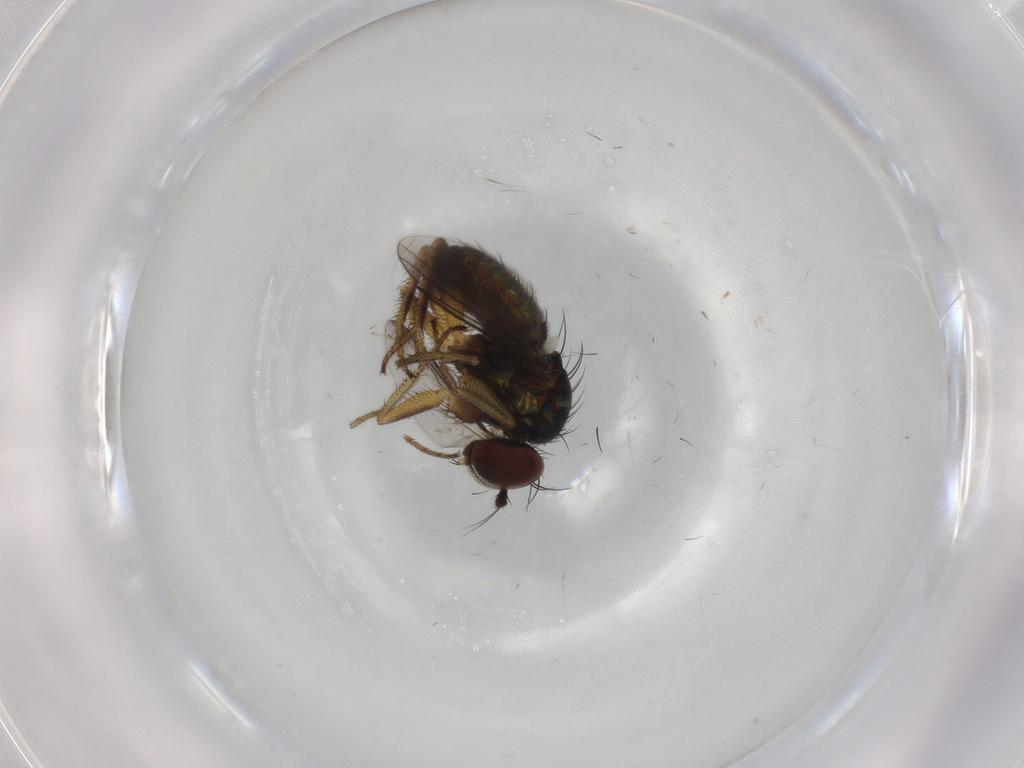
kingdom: Animalia
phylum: Arthropoda
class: Insecta
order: Diptera
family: Dolichopodidae
